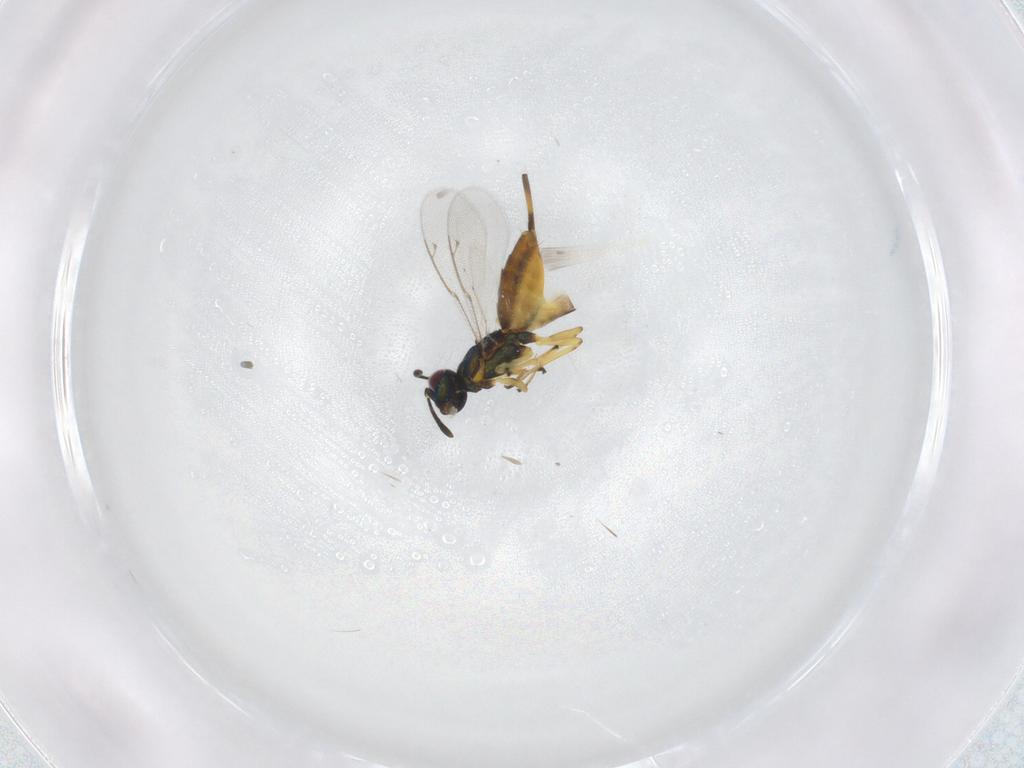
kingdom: Animalia
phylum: Arthropoda
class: Insecta
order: Hymenoptera
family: Eupelmidae
